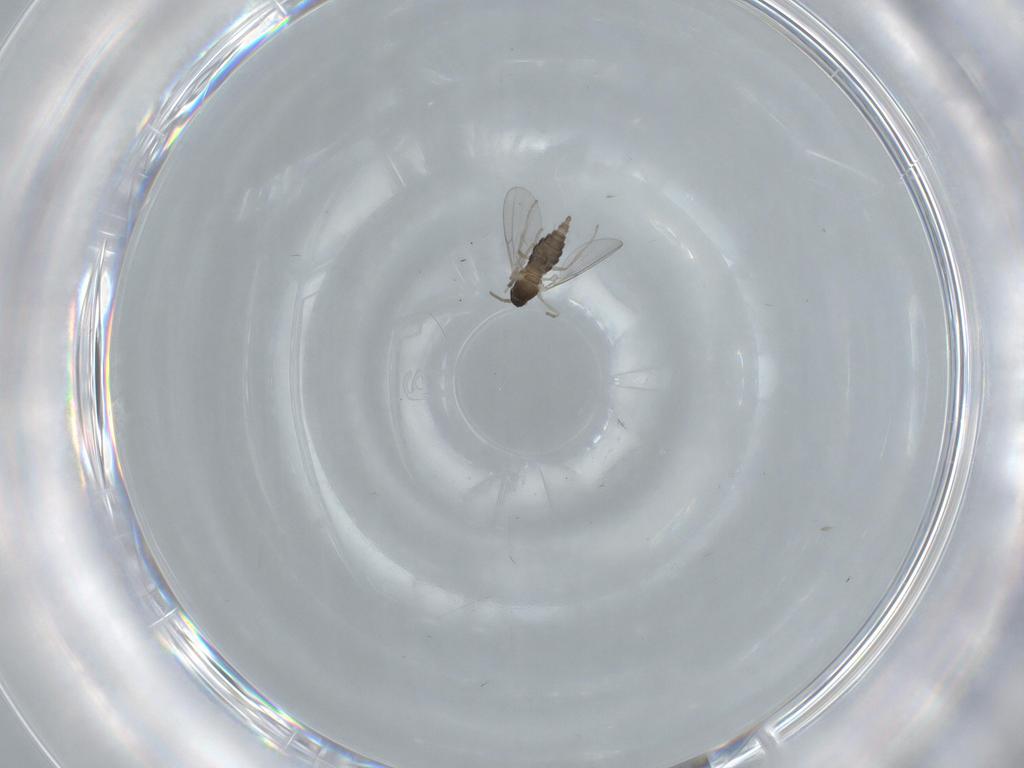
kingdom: Animalia
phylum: Arthropoda
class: Insecta
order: Diptera
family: Cecidomyiidae
